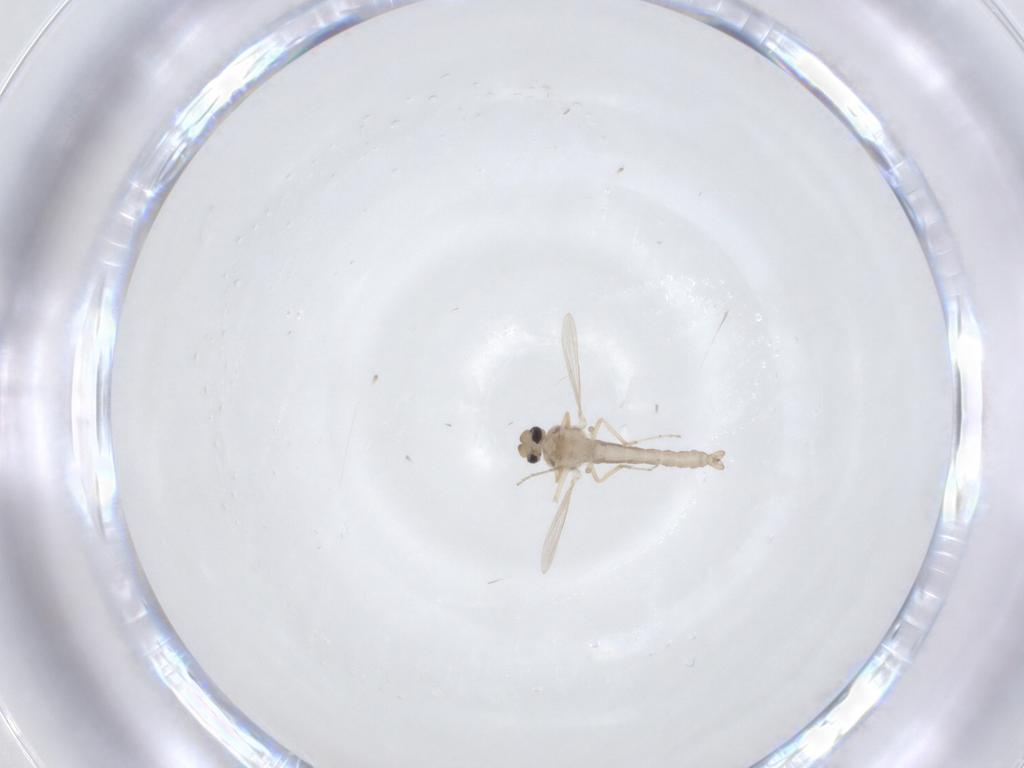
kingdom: Animalia
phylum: Arthropoda
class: Insecta
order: Diptera
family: Ceratopogonidae
